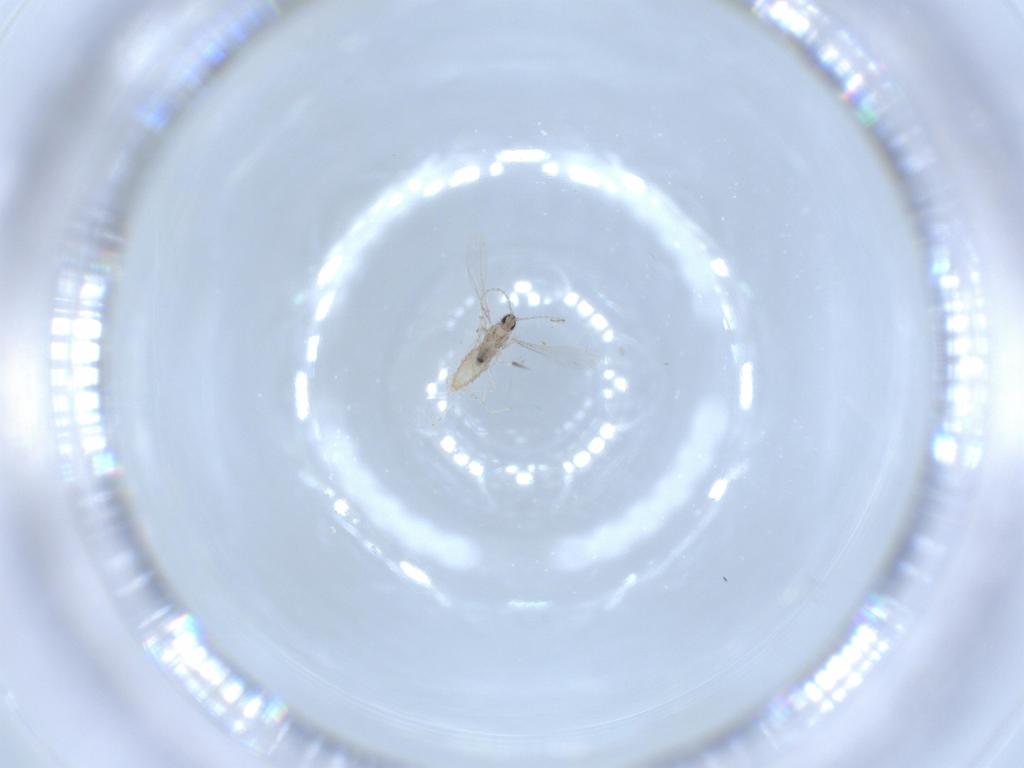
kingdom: Animalia
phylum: Arthropoda
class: Insecta
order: Diptera
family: Cecidomyiidae
